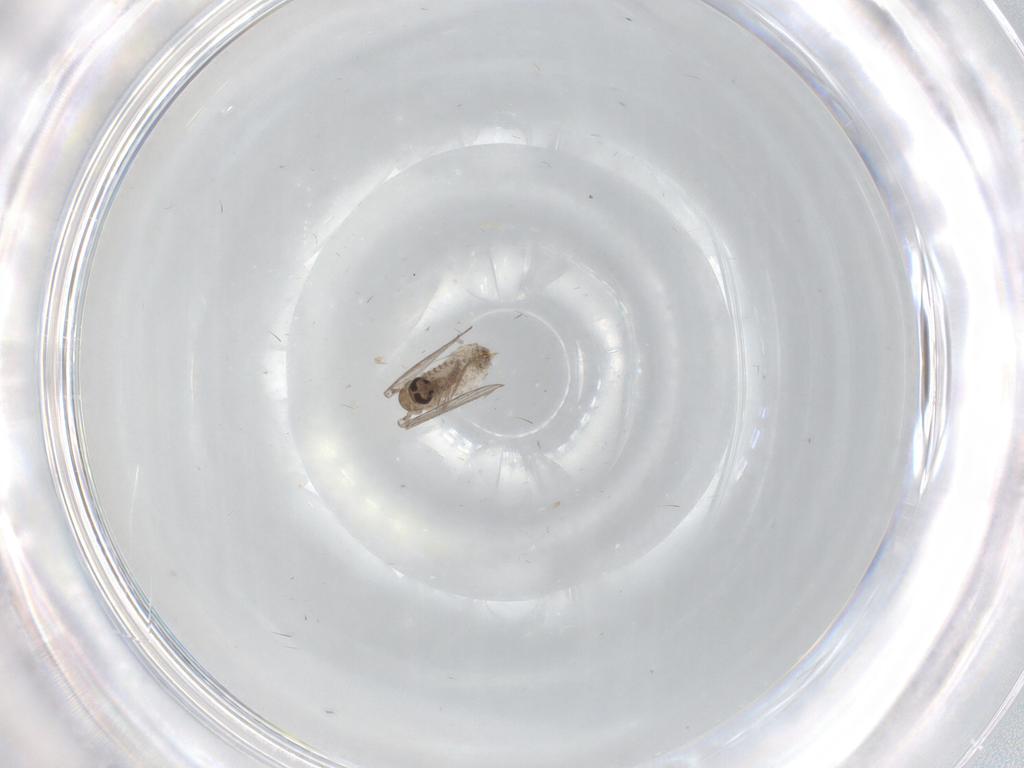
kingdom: Animalia
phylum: Arthropoda
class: Insecta
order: Diptera
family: Psychodidae
